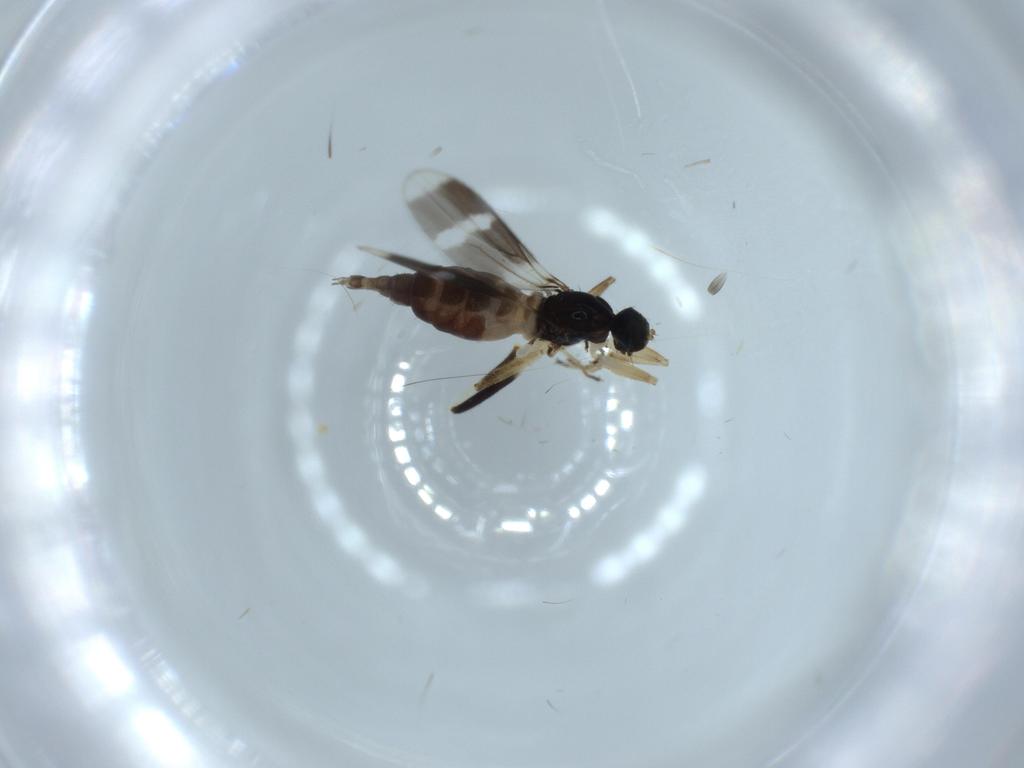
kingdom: Animalia
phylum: Arthropoda
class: Insecta
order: Diptera
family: Hybotidae
